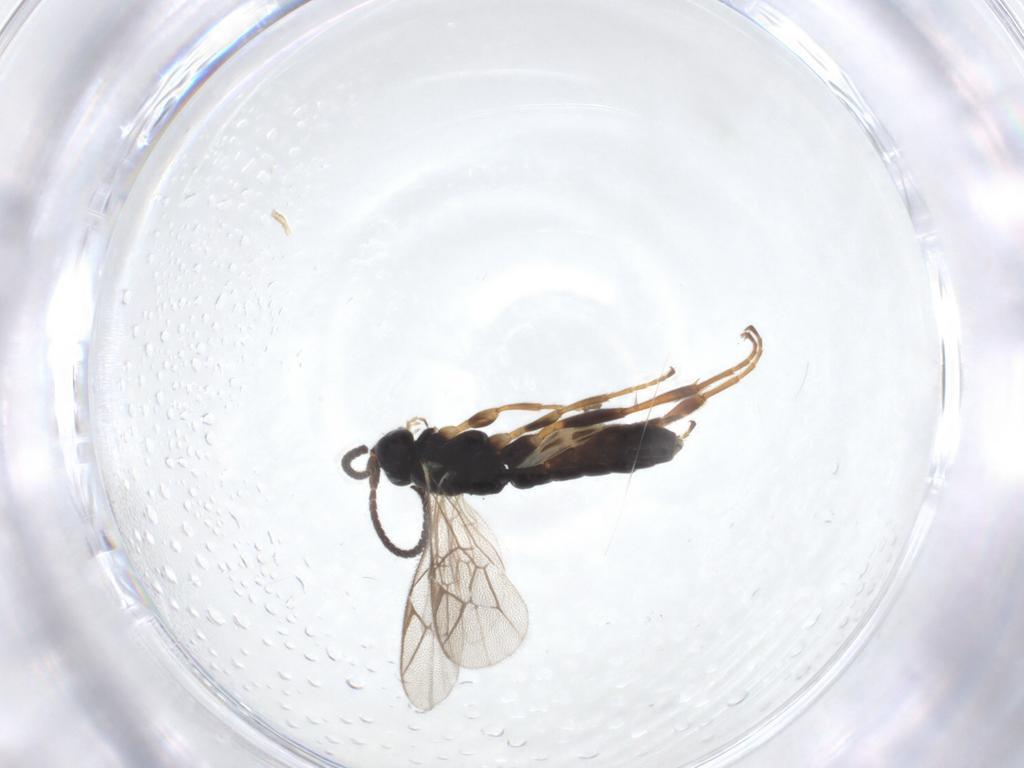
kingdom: Animalia
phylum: Arthropoda
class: Insecta
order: Hymenoptera
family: Ichneumonidae
